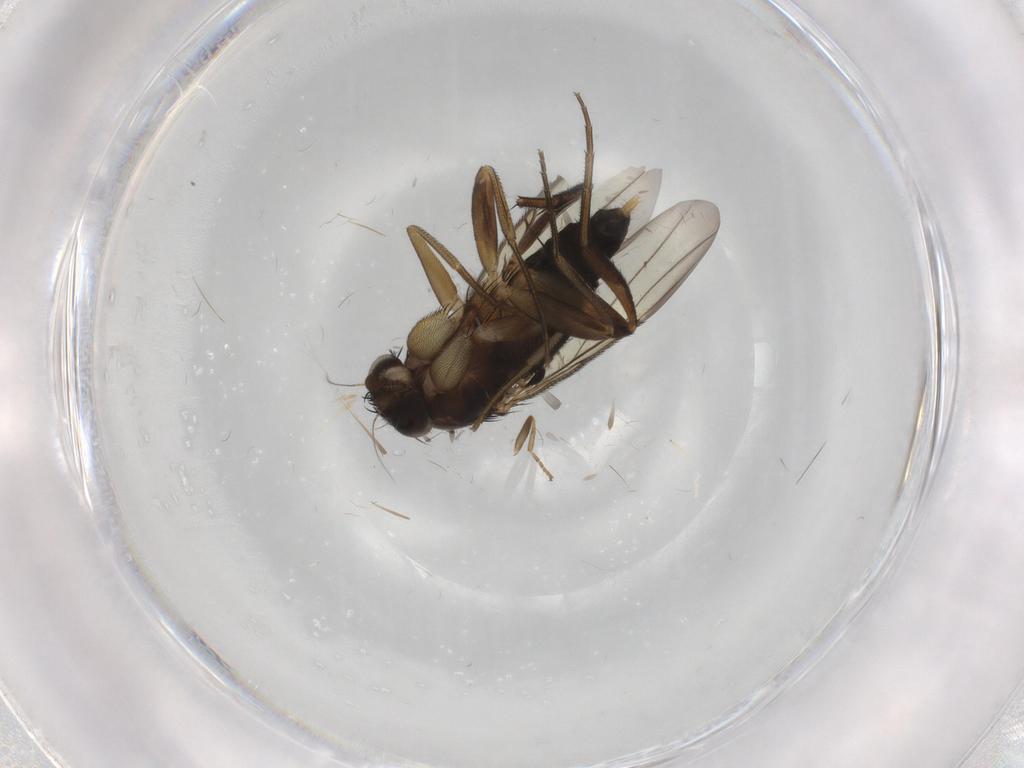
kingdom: Animalia
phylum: Arthropoda
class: Insecta
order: Diptera
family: Scatopsidae
